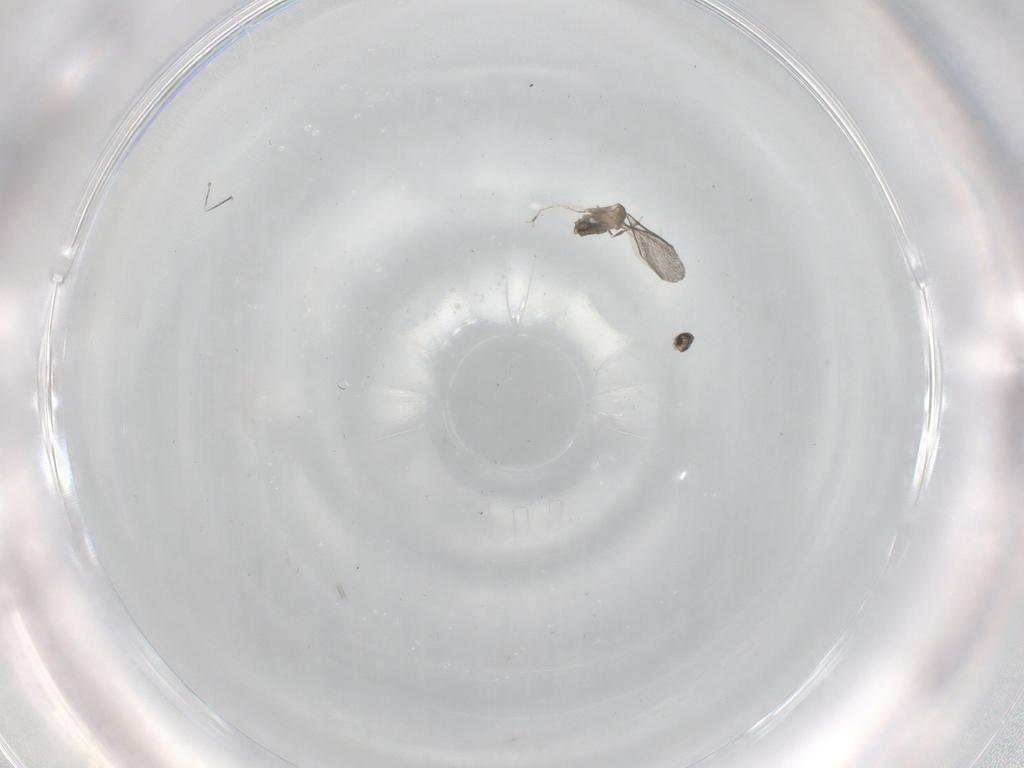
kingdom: Animalia
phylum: Arthropoda
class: Insecta
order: Diptera
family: Cecidomyiidae
